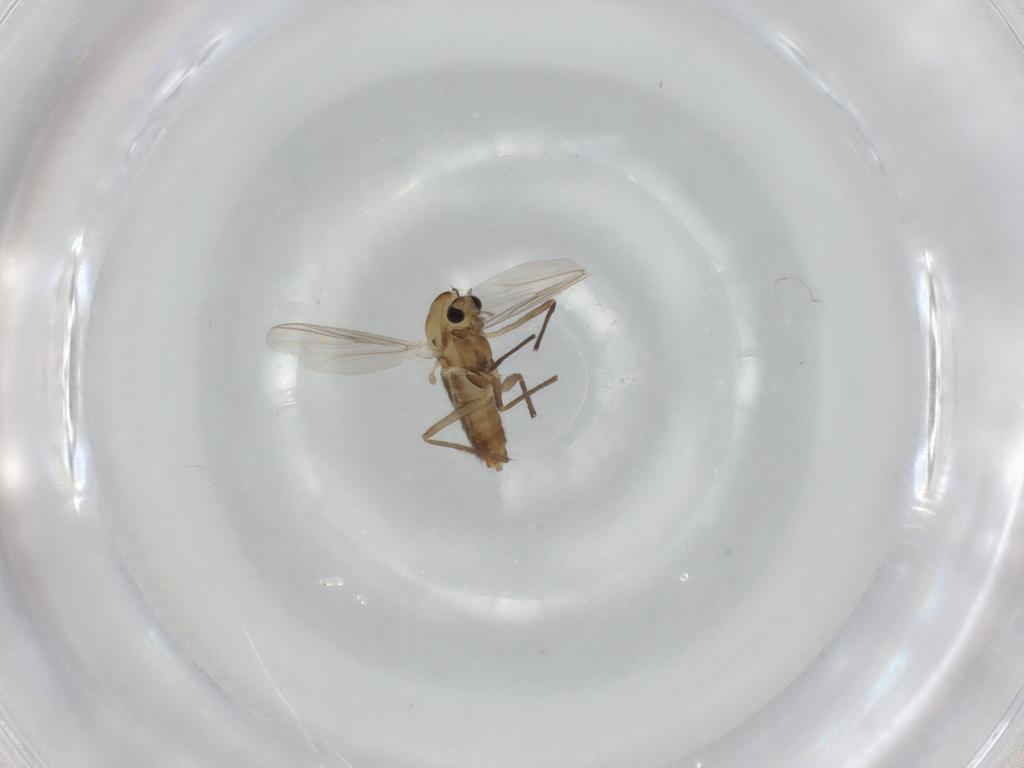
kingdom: Animalia
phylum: Arthropoda
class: Insecta
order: Diptera
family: Chironomidae
